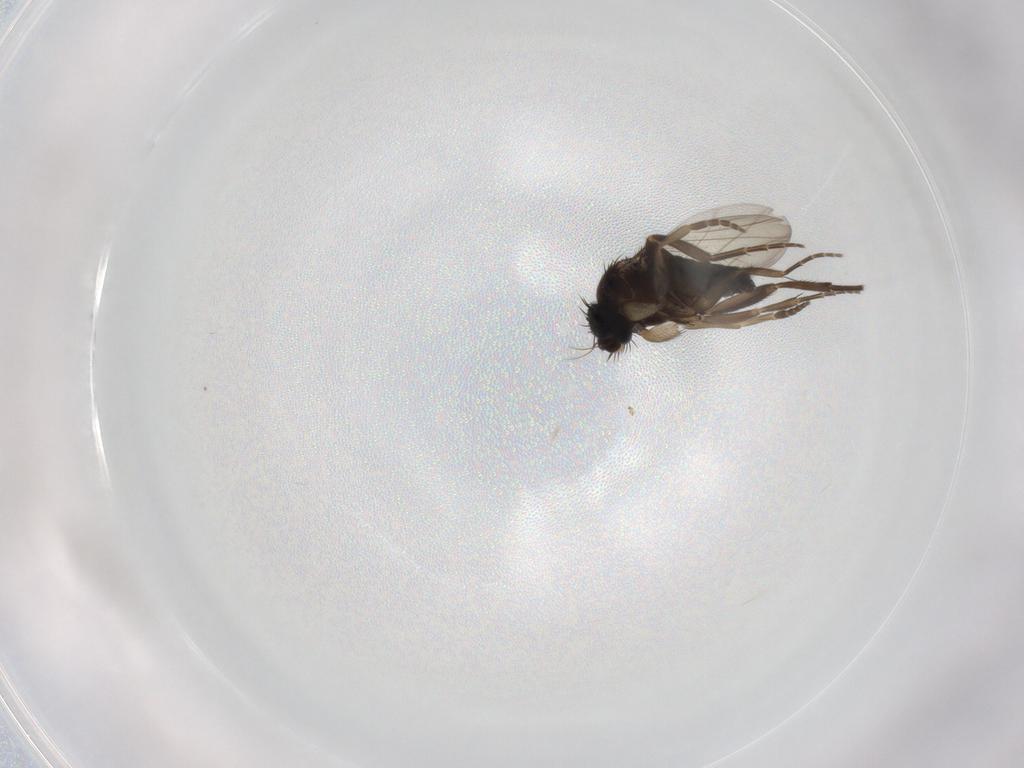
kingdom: Animalia
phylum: Arthropoda
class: Insecta
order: Diptera
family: Phoridae
